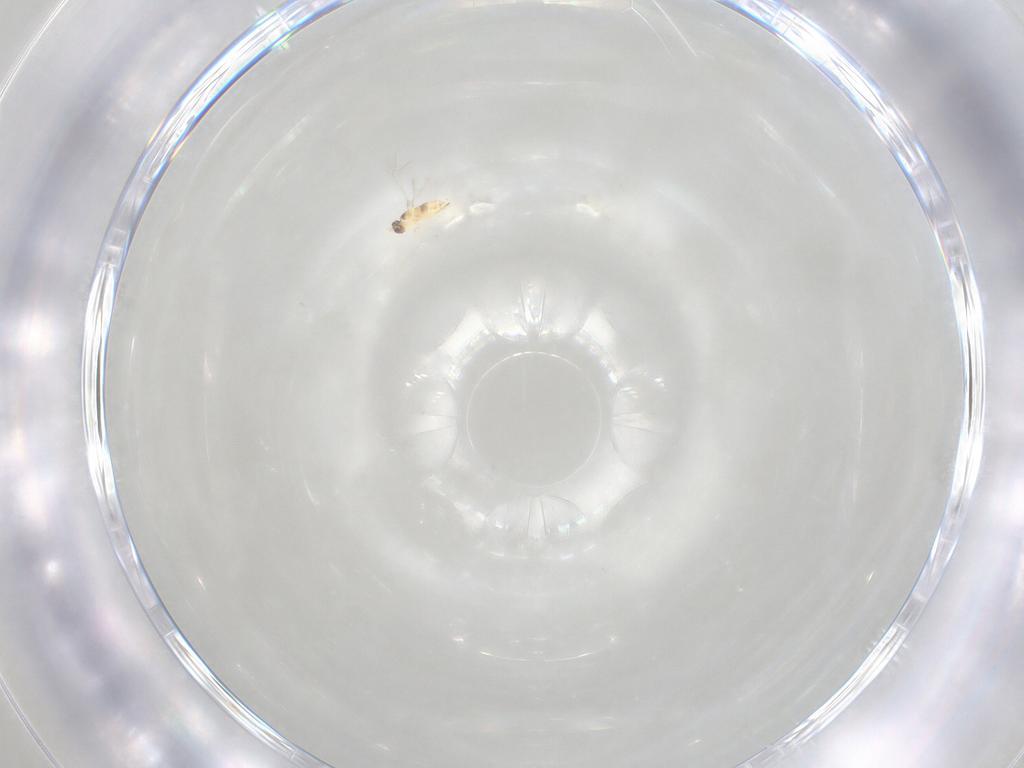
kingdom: Animalia
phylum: Arthropoda
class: Insecta
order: Hymenoptera
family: Mymaridae
